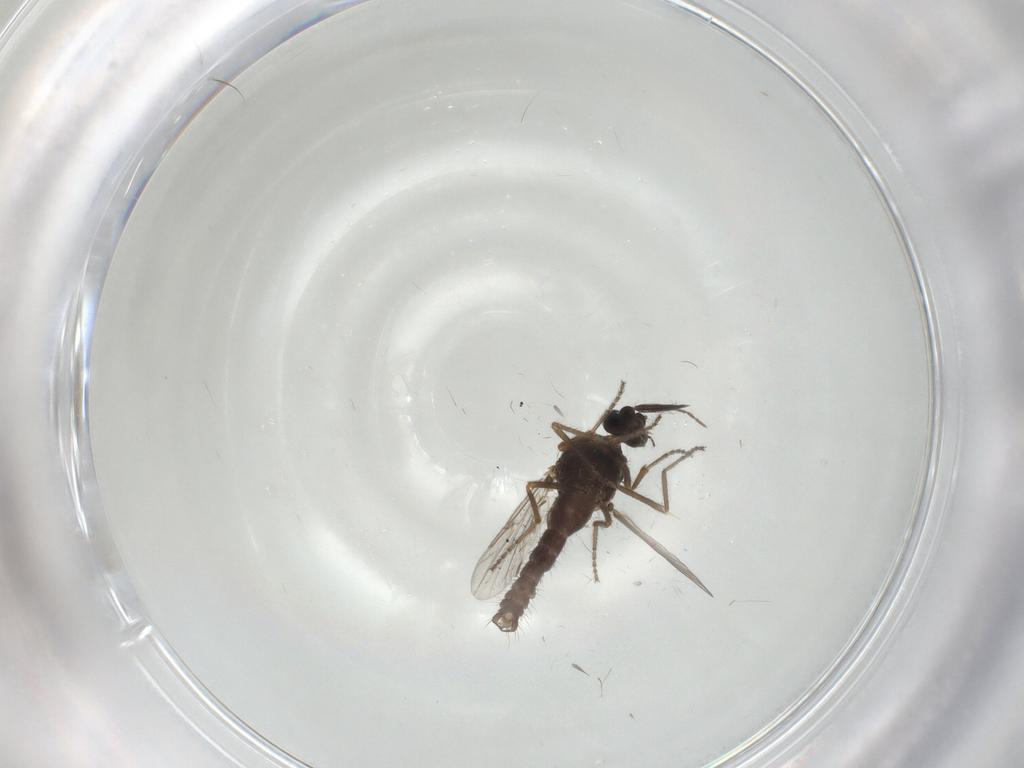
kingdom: Animalia
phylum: Arthropoda
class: Insecta
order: Diptera
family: Ceratopogonidae
